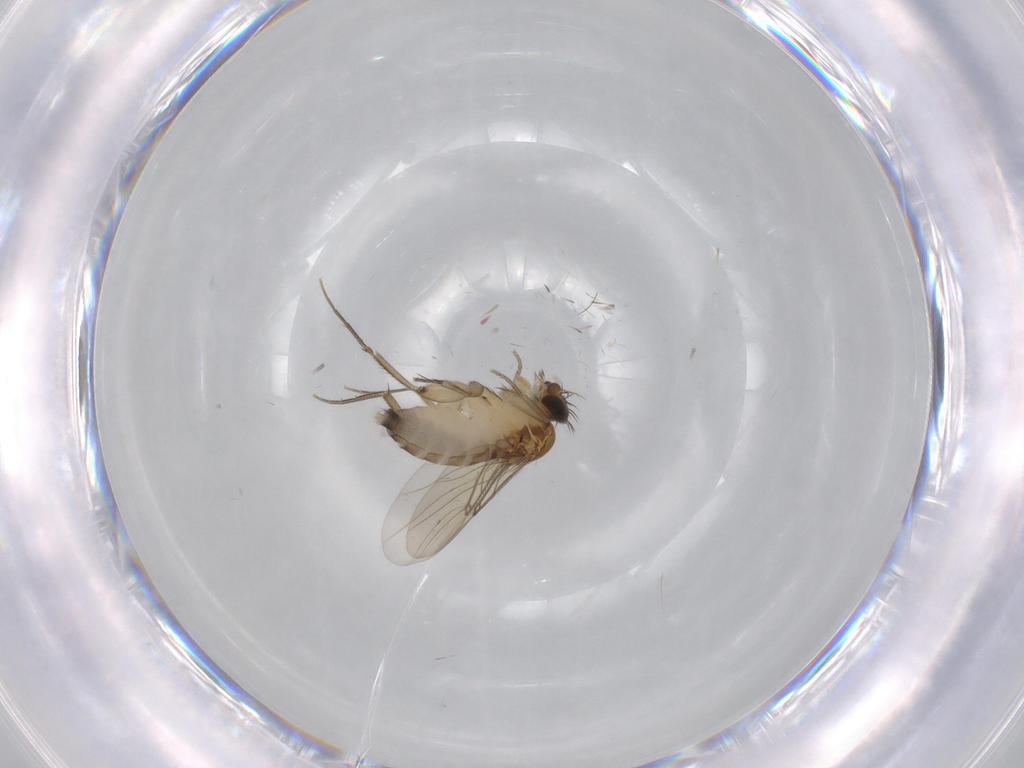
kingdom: Animalia
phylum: Arthropoda
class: Insecta
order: Diptera
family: Phoridae
